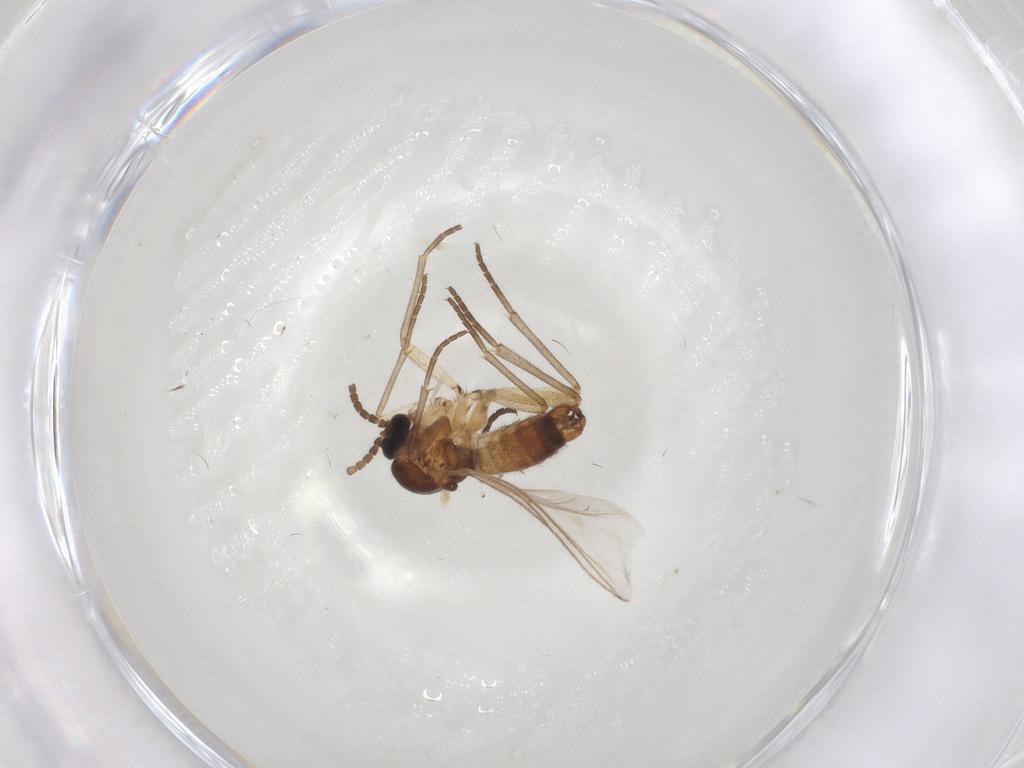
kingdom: Animalia
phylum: Arthropoda
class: Insecta
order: Diptera
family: Sciaridae
